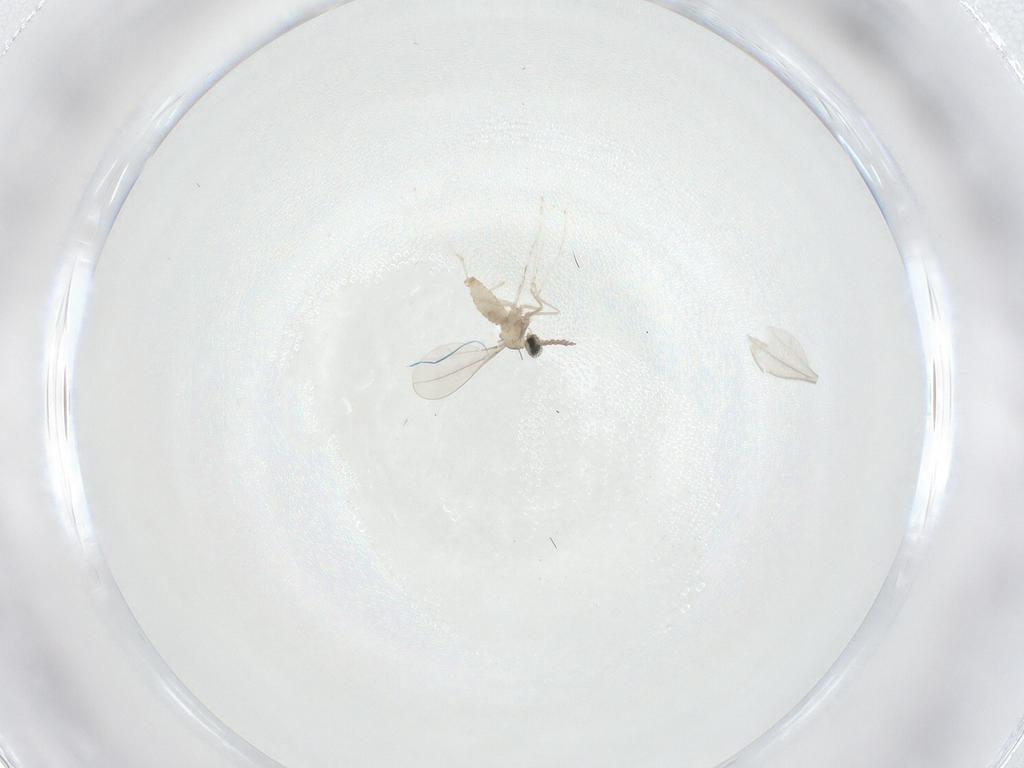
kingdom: Animalia
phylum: Arthropoda
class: Insecta
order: Diptera
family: Ceratopogonidae
